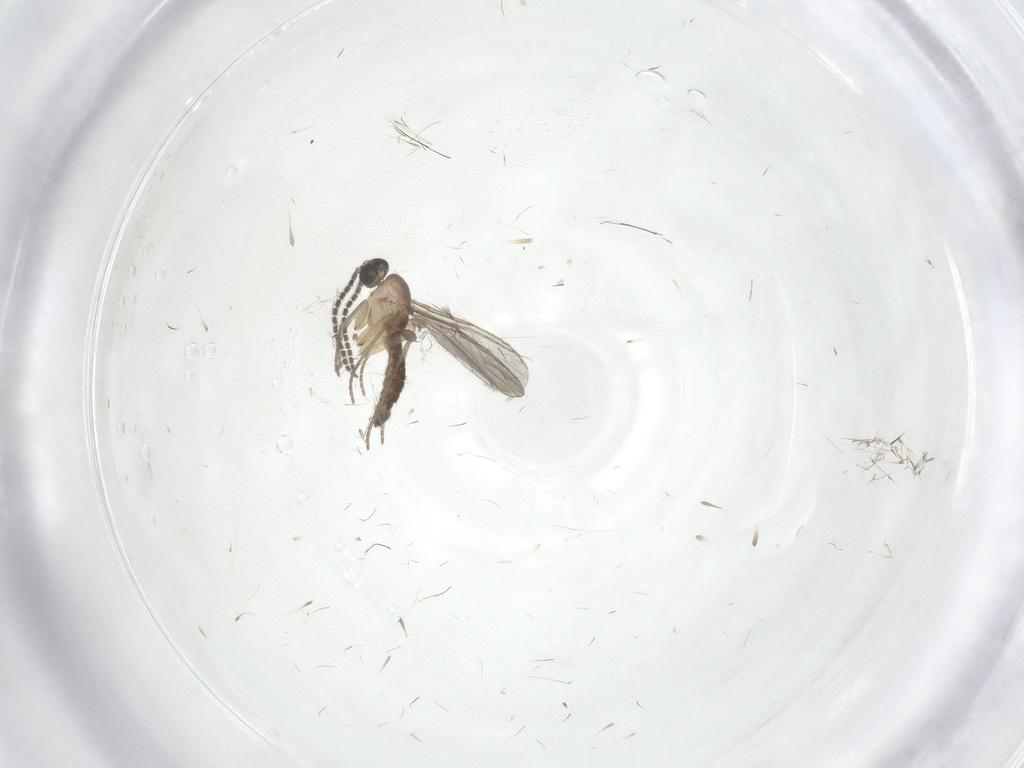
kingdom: Animalia
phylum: Arthropoda
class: Insecta
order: Diptera
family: Sciaridae
